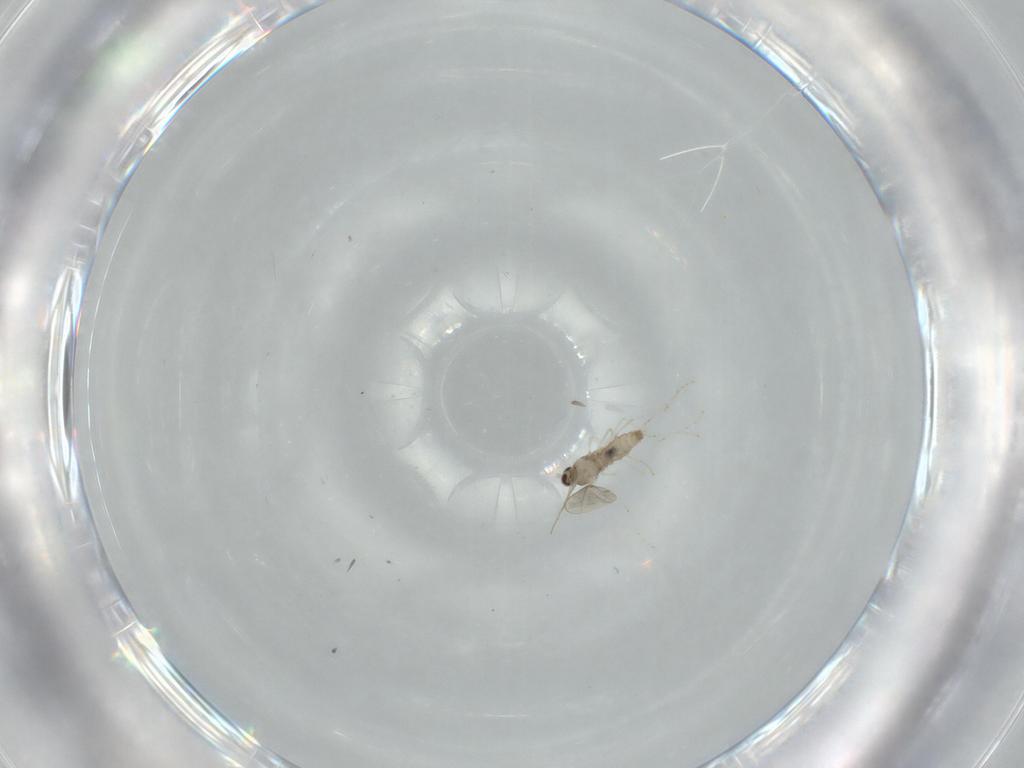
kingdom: Animalia
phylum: Arthropoda
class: Insecta
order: Diptera
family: Cecidomyiidae
